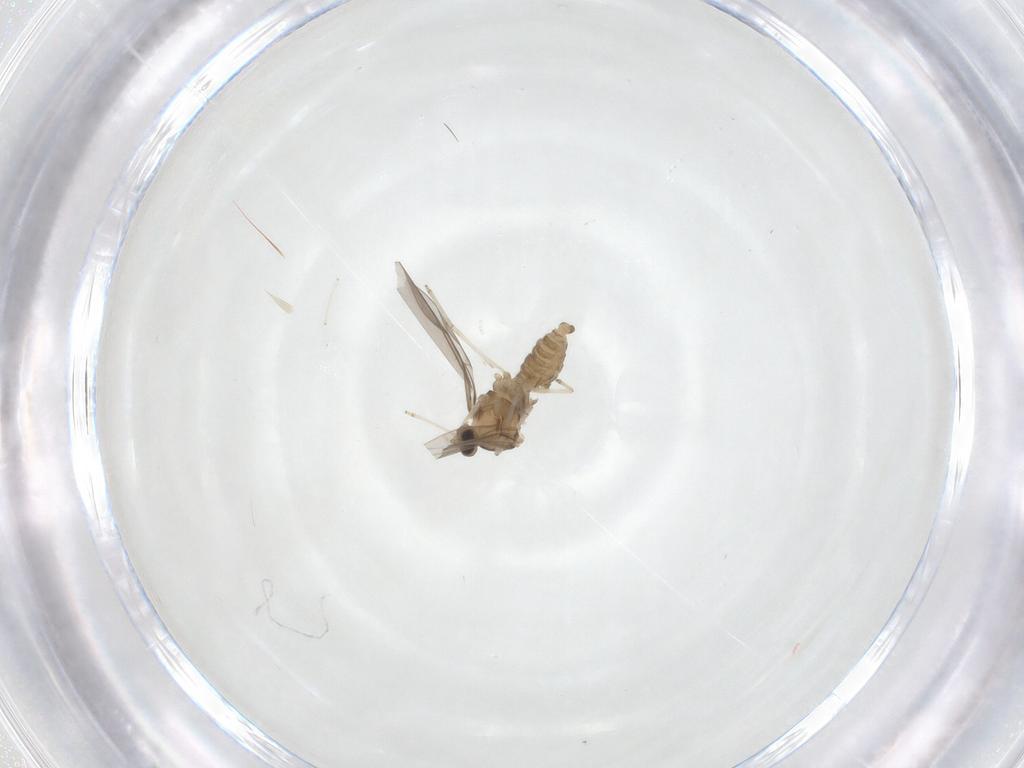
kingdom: Animalia
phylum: Arthropoda
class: Insecta
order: Diptera
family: Cecidomyiidae
